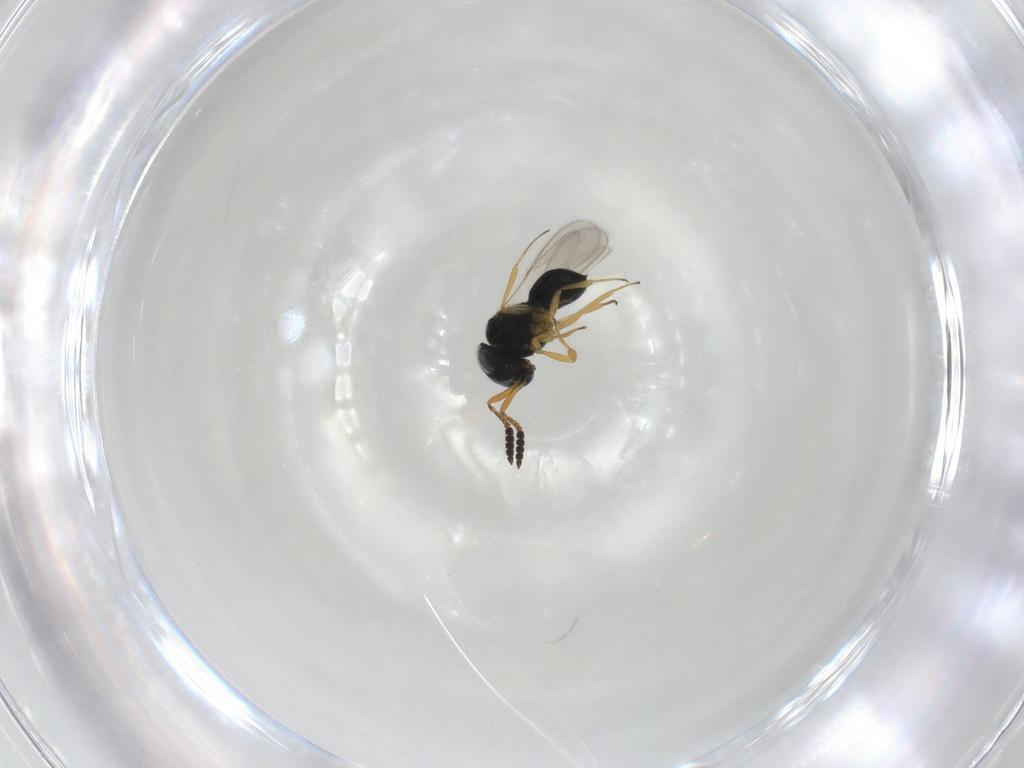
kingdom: Animalia
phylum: Arthropoda
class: Insecta
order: Hymenoptera
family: Scelionidae
